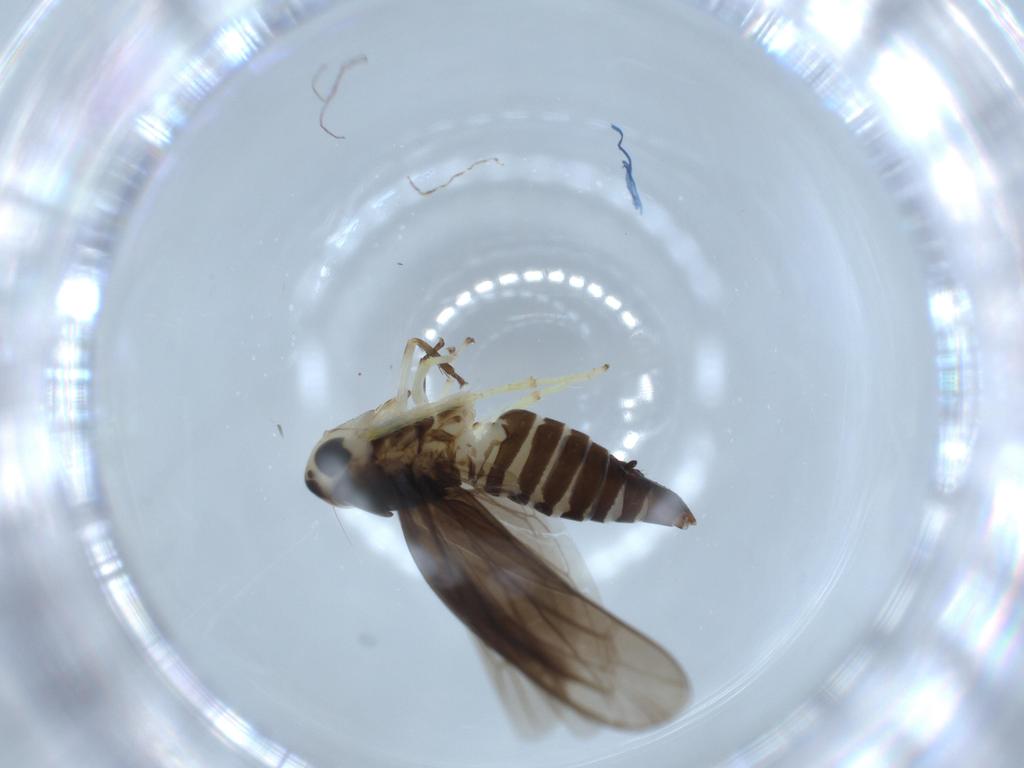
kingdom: Animalia
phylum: Arthropoda
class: Insecta
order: Hemiptera
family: Cicadellidae
